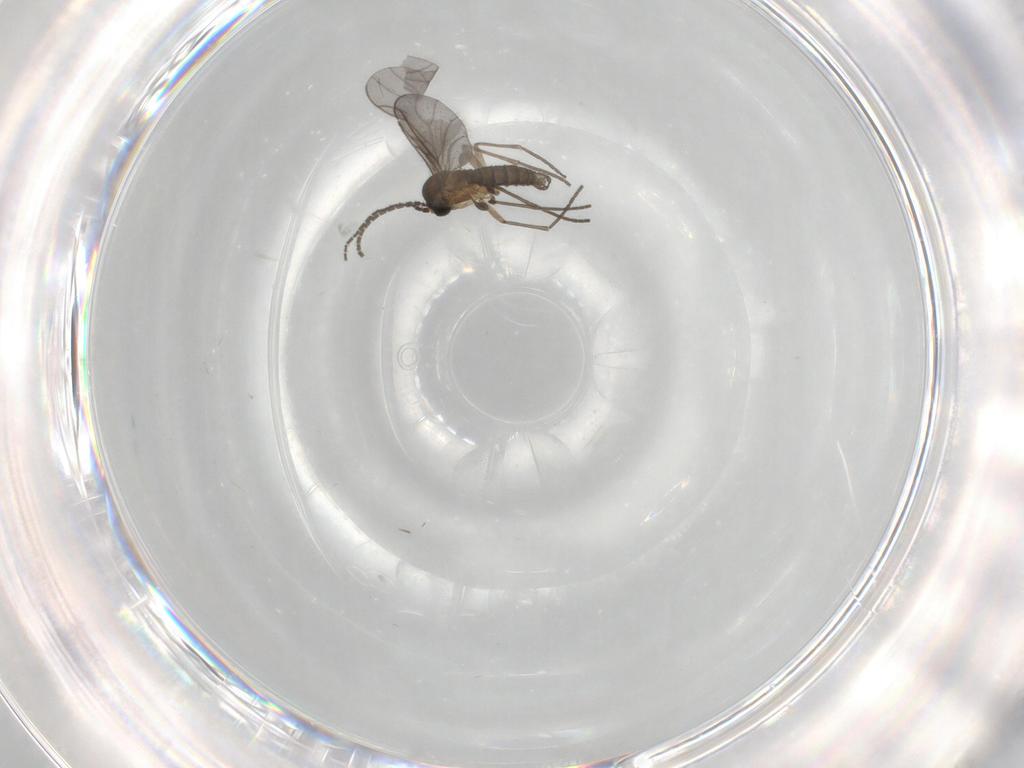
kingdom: Animalia
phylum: Arthropoda
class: Insecta
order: Diptera
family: Sciaridae
